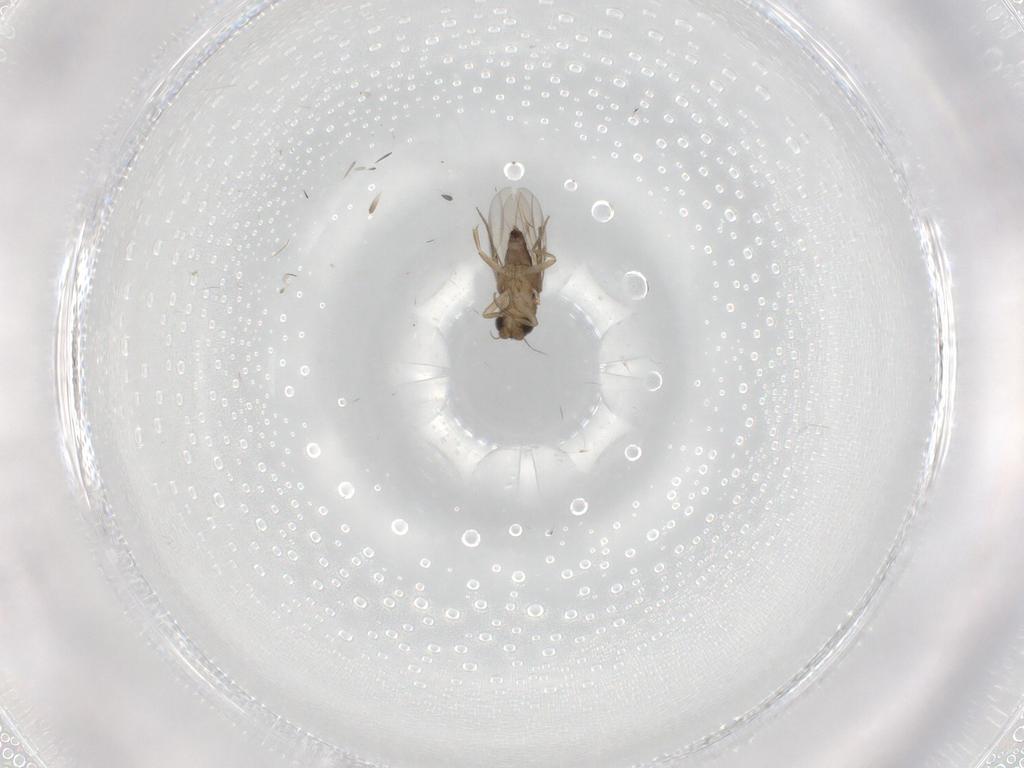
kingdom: Animalia
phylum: Arthropoda
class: Insecta
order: Diptera
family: Phoridae
